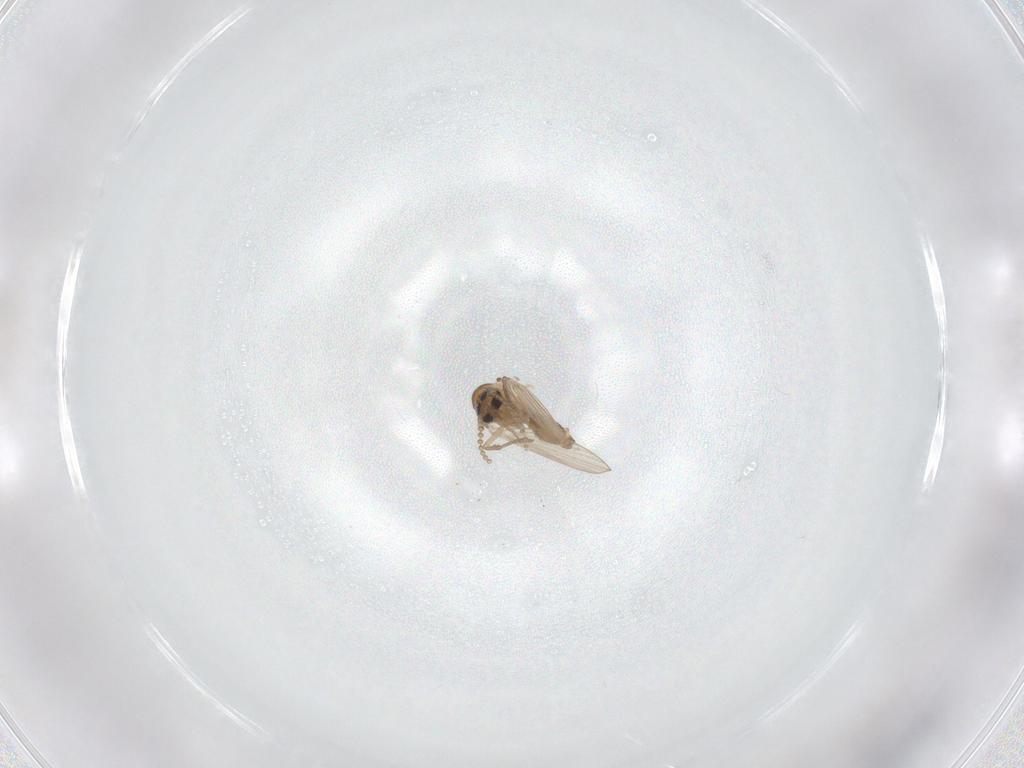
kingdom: Animalia
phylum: Arthropoda
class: Insecta
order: Diptera
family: Psychodidae
